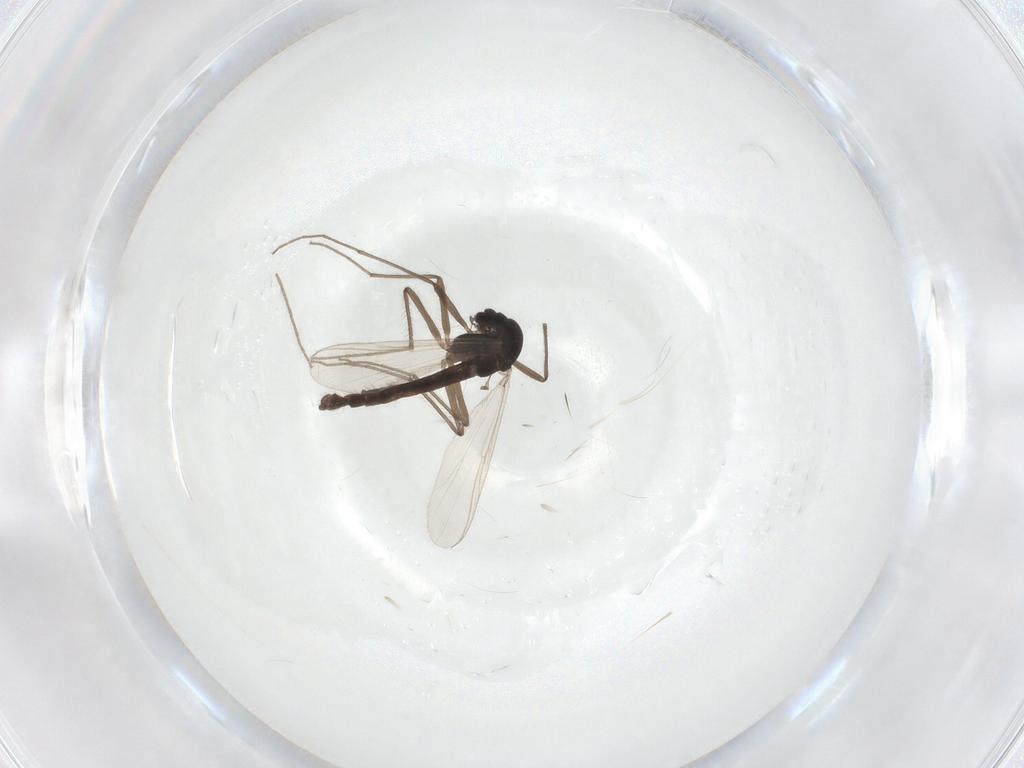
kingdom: Animalia
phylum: Arthropoda
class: Insecta
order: Diptera
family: Chironomidae
